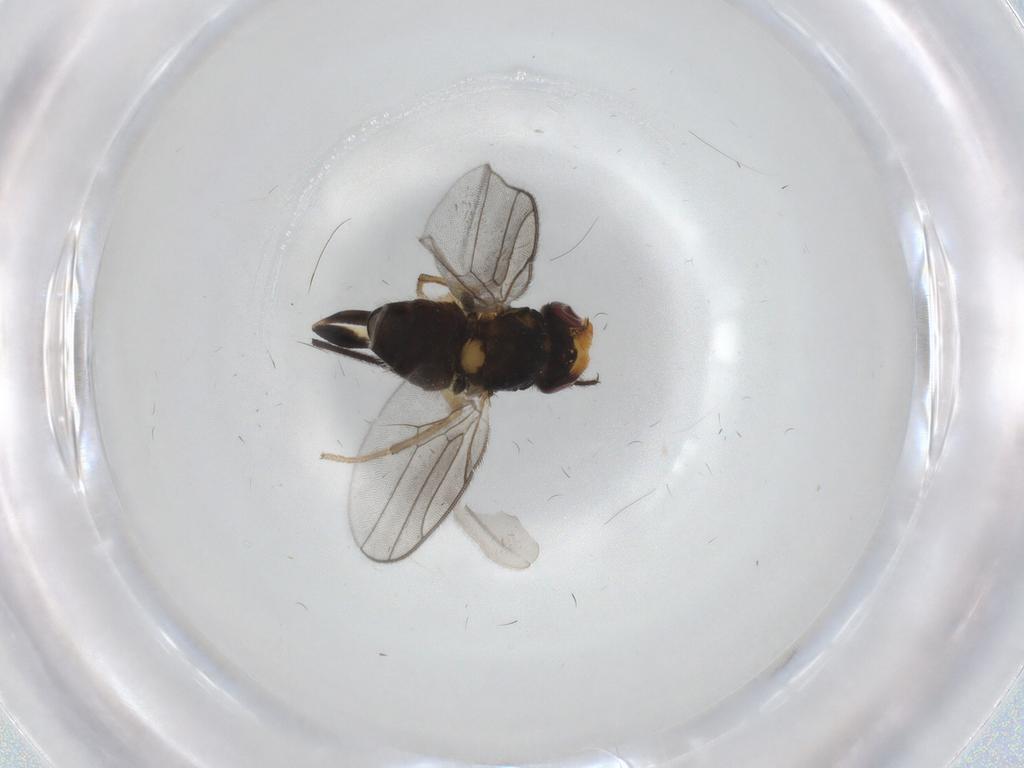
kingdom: Animalia
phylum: Arthropoda
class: Insecta
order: Diptera
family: Chloropidae
